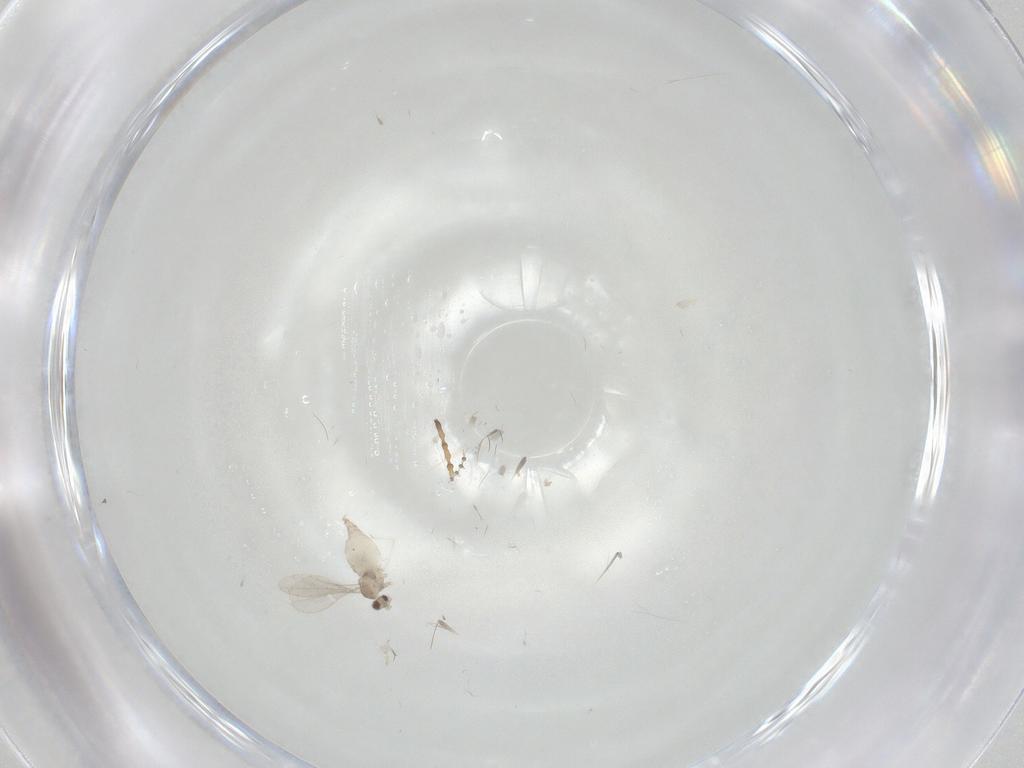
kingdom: Animalia
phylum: Arthropoda
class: Insecta
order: Diptera
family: Cecidomyiidae
